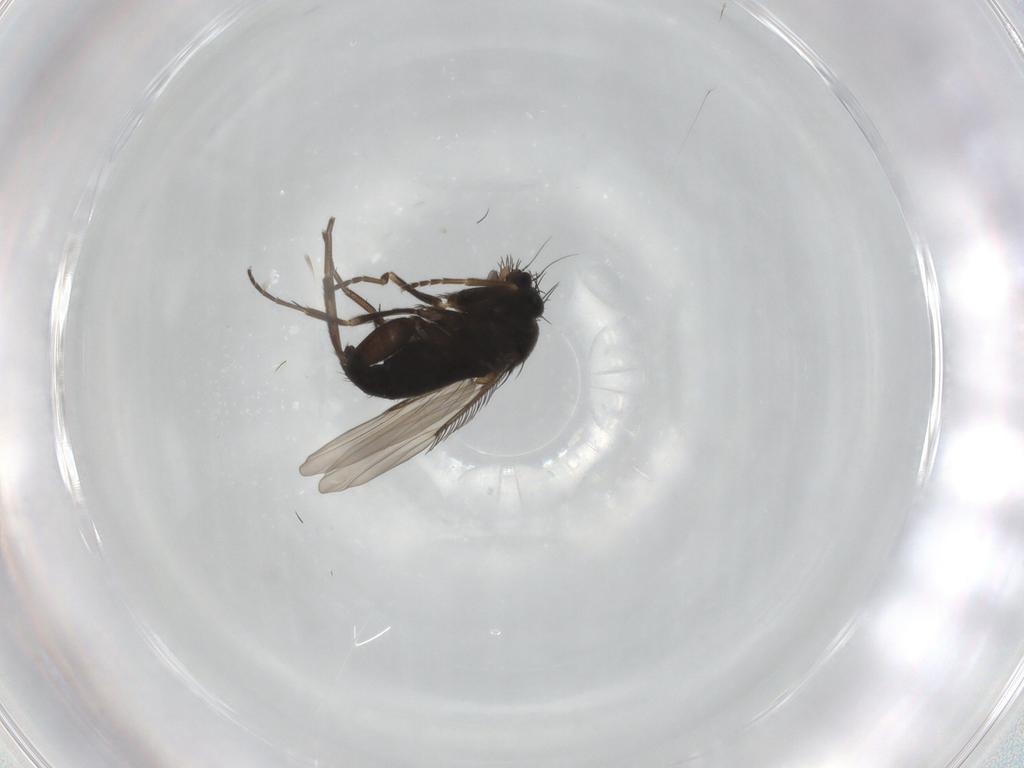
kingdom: Animalia
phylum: Arthropoda
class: Insecta
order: Diptera
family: Phoridae
